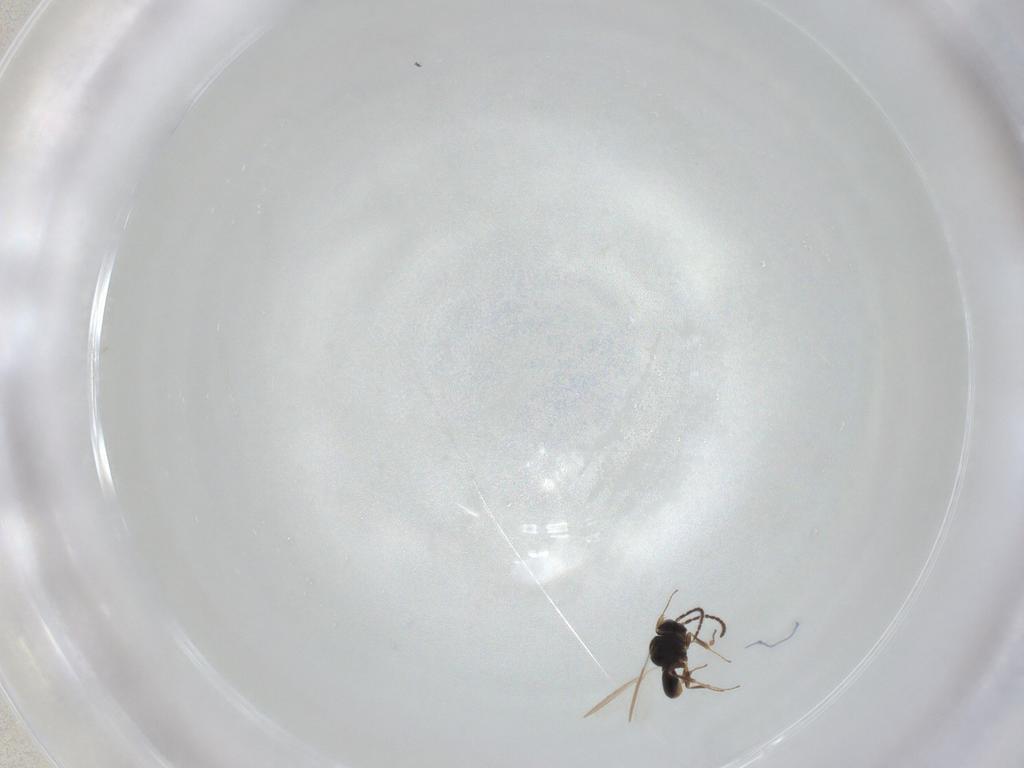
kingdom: Animalia
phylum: Arthropoda
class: Insecta
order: Hymenoptera
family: Scelionidae
